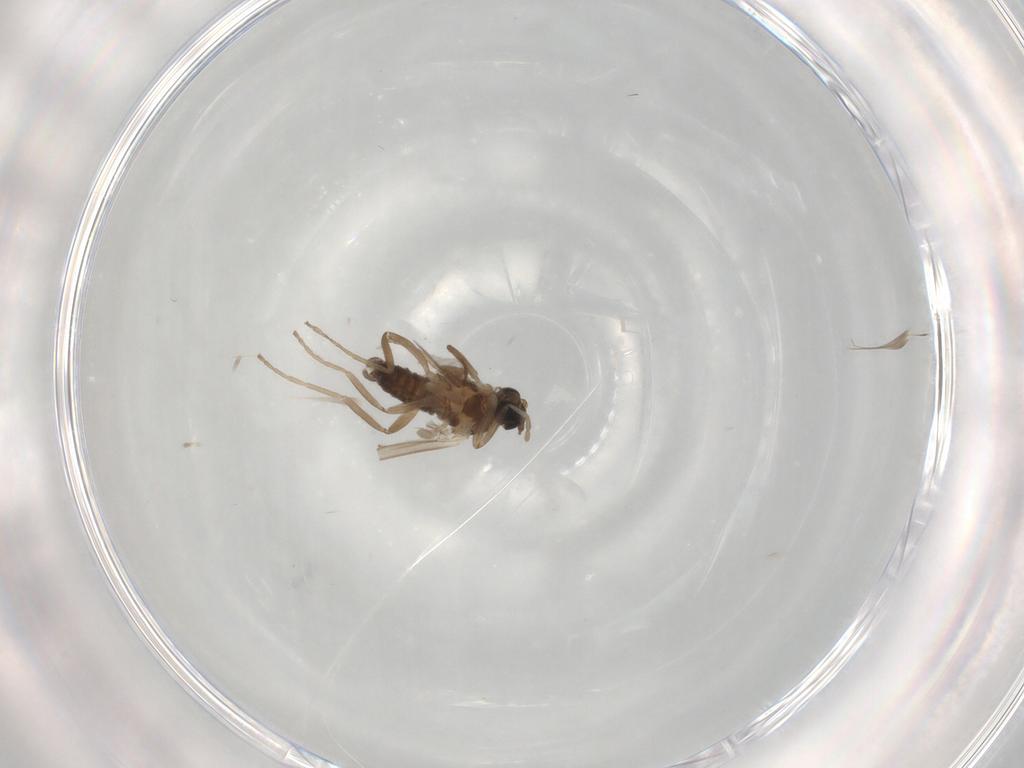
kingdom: Animalia
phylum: Arthropoda
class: Insecta
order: Diptera
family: Sciaridae
